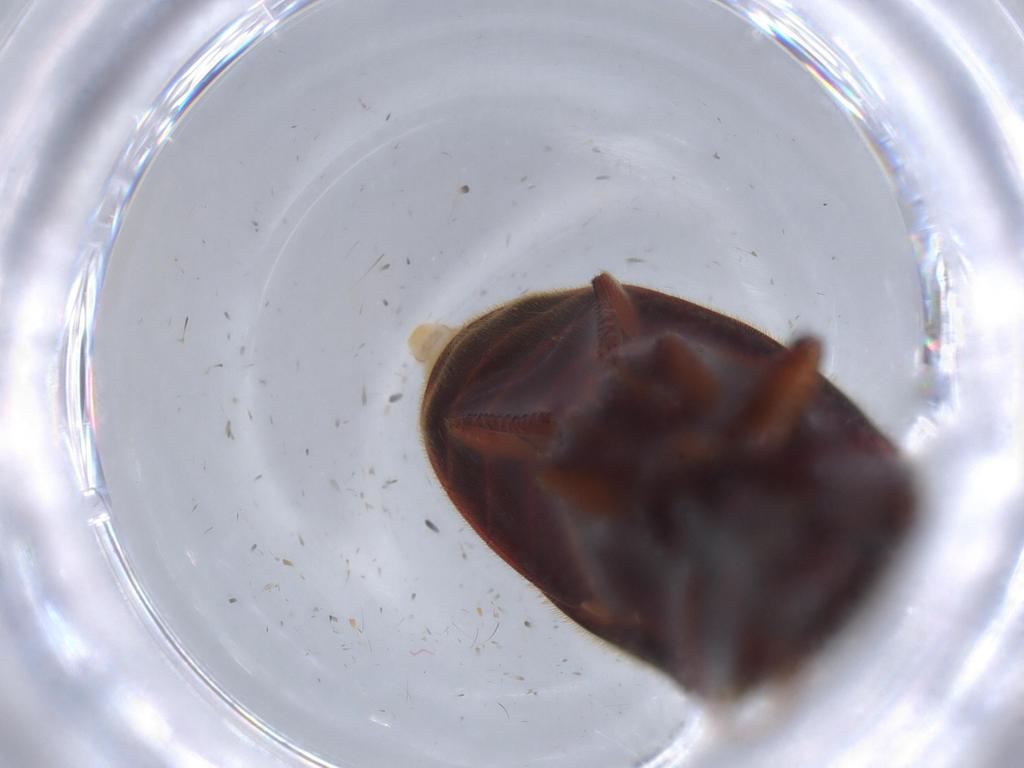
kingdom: Animalia
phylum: Arthropoda
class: Insecta
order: Coleoptera
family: Elateridae
